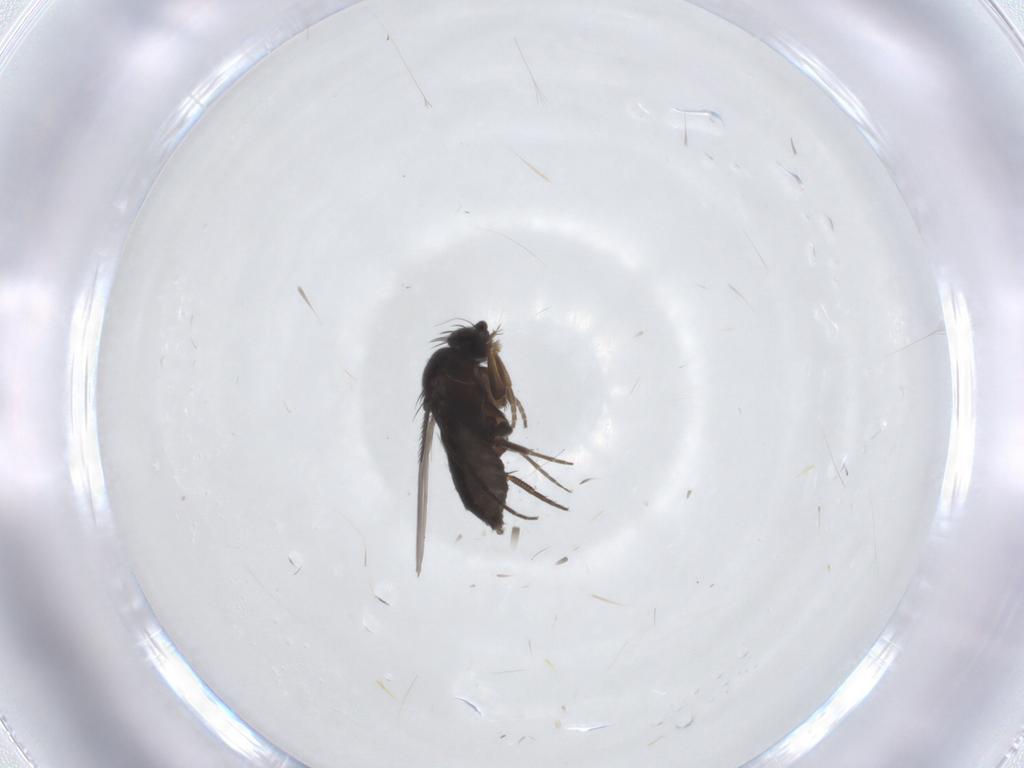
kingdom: Animalia
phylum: Arthropoda
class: Insecta
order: Diptera
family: Phoridae
